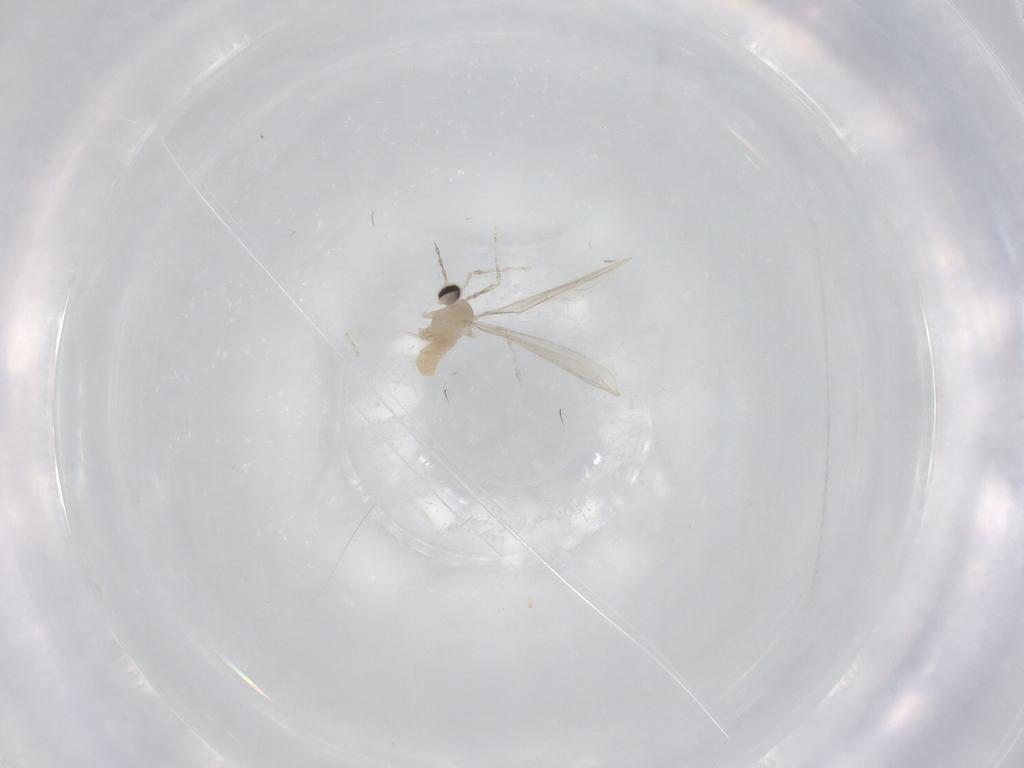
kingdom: Animalia
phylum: Arthropoda
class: Insecta
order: Diptera
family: Cecidomyiidae
